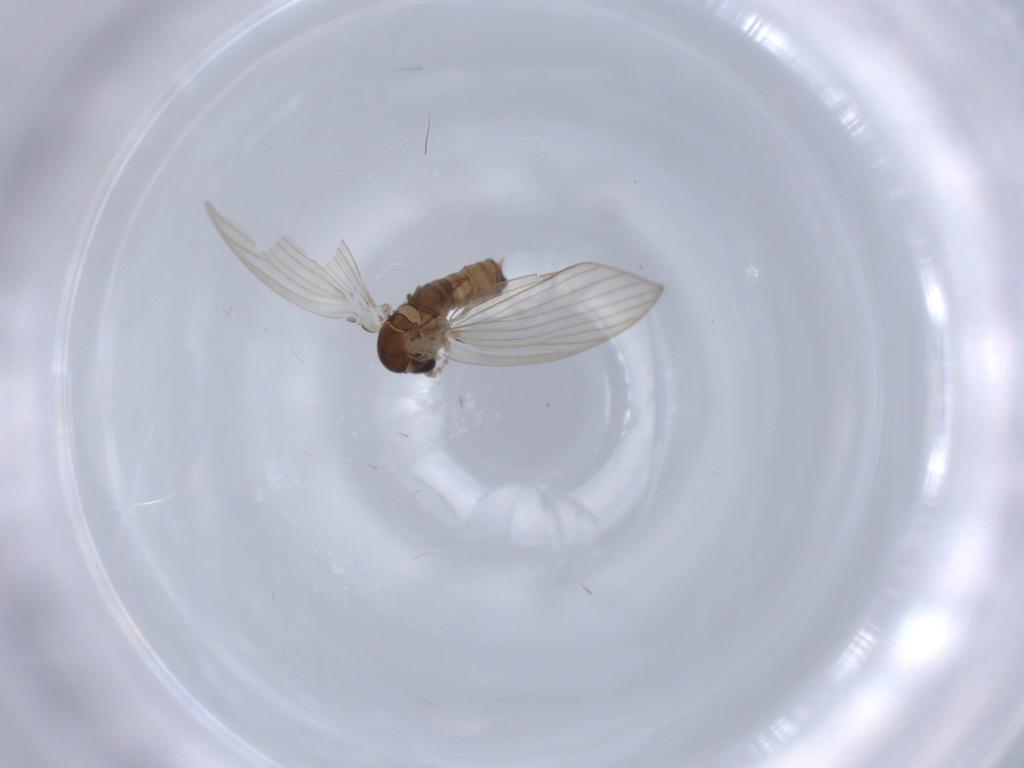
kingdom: Animalia
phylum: Arthropoda
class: Insecta
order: Diptera
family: Psychodidae
